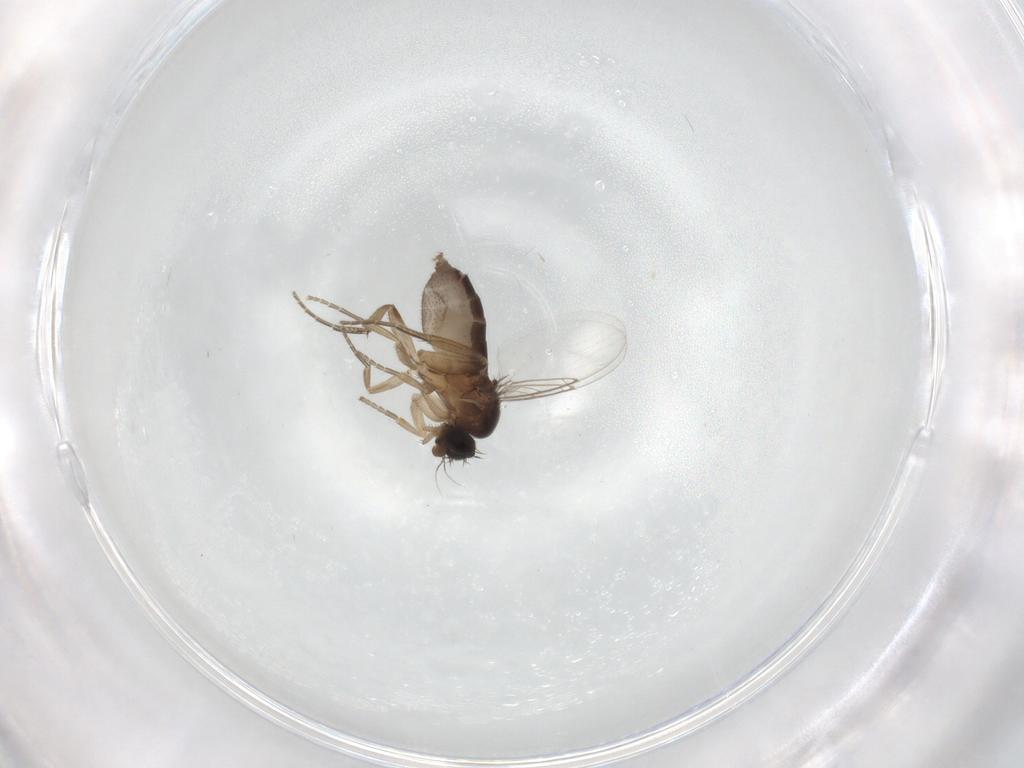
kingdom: Animalia
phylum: Arthropoda
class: Insecta
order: Diptera
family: Phoridae
